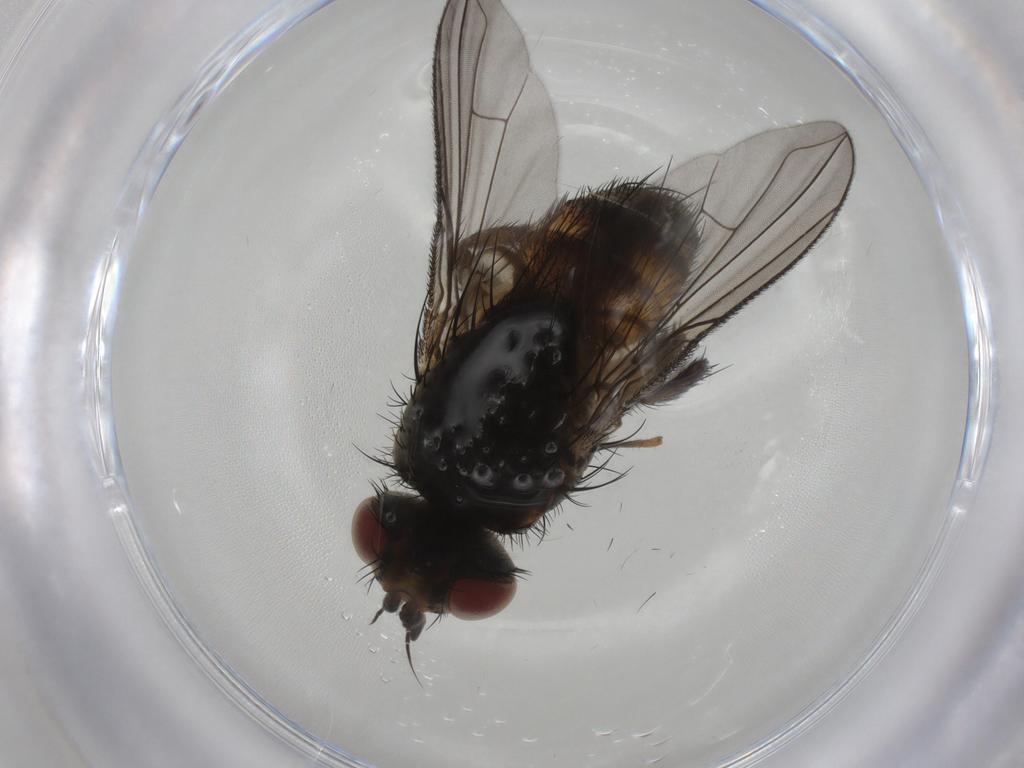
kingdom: Animalia
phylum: Arthropoda
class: Insecta
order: Diptera
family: Tachinidae
